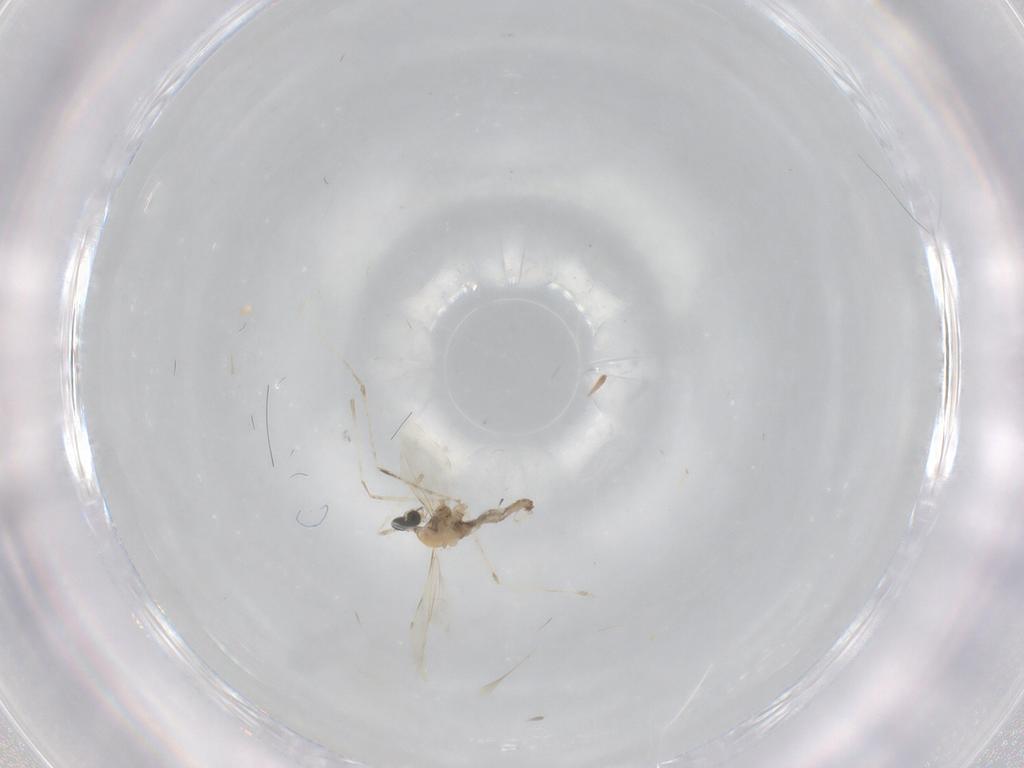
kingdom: Animalia
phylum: Arthropoda
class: Insecta
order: Diptera
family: Cecidomyiidae
